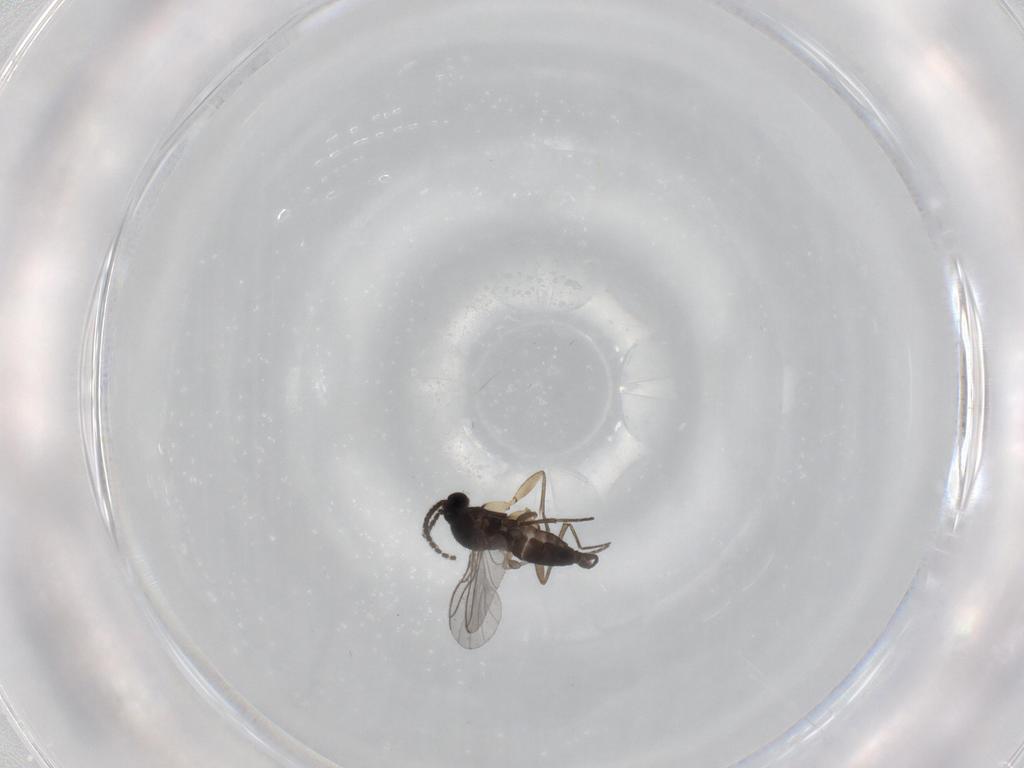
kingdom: Animalia
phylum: Arthropoda
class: Insecta
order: Diptera
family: Sciaridae
